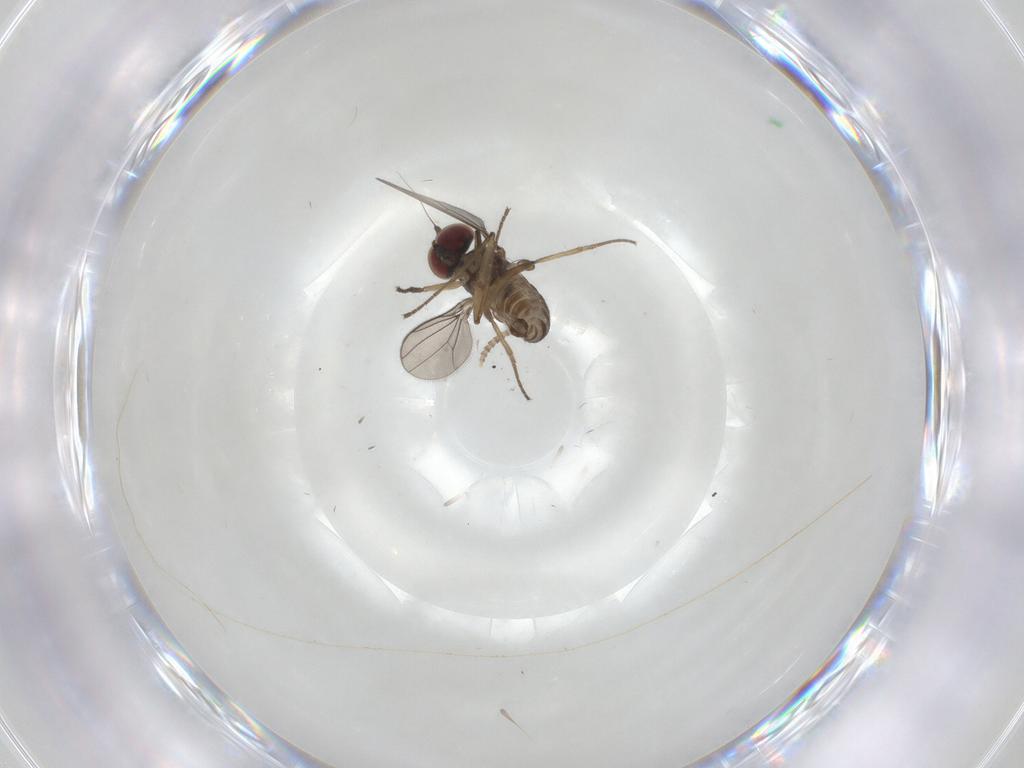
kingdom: Animalia
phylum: Arthropoda
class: Insecta
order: Diptera
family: Dolichopodidae
